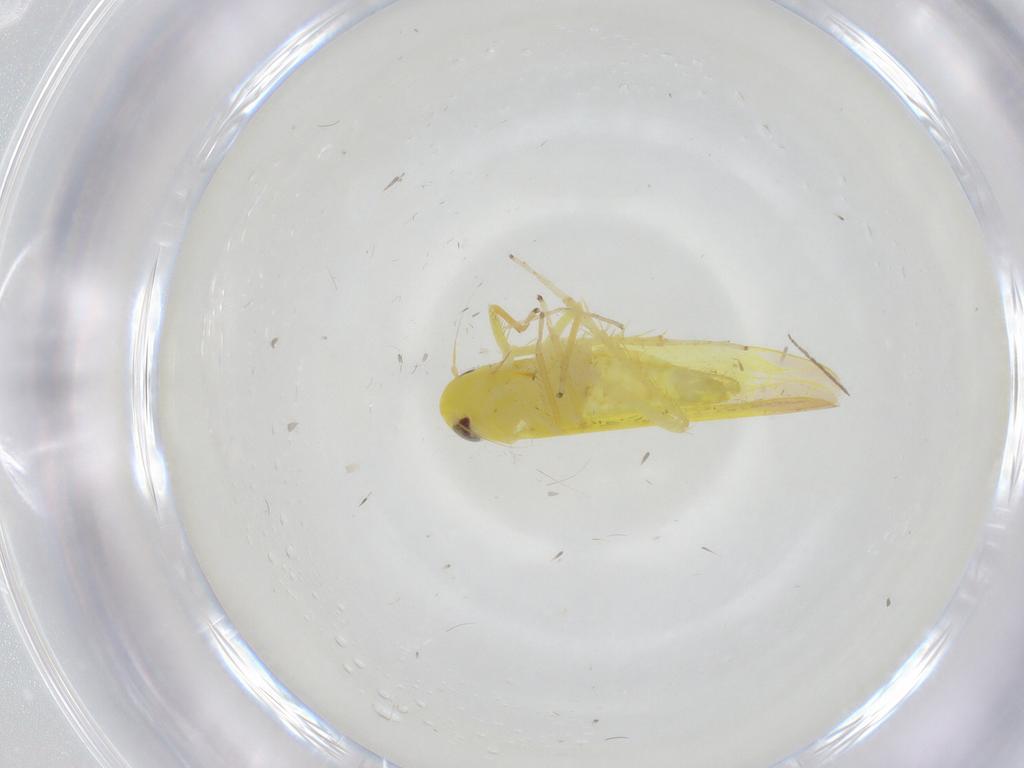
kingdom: Animalia
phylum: Arthropoda
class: Insecta
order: Hemiptera
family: Cicadellidae
